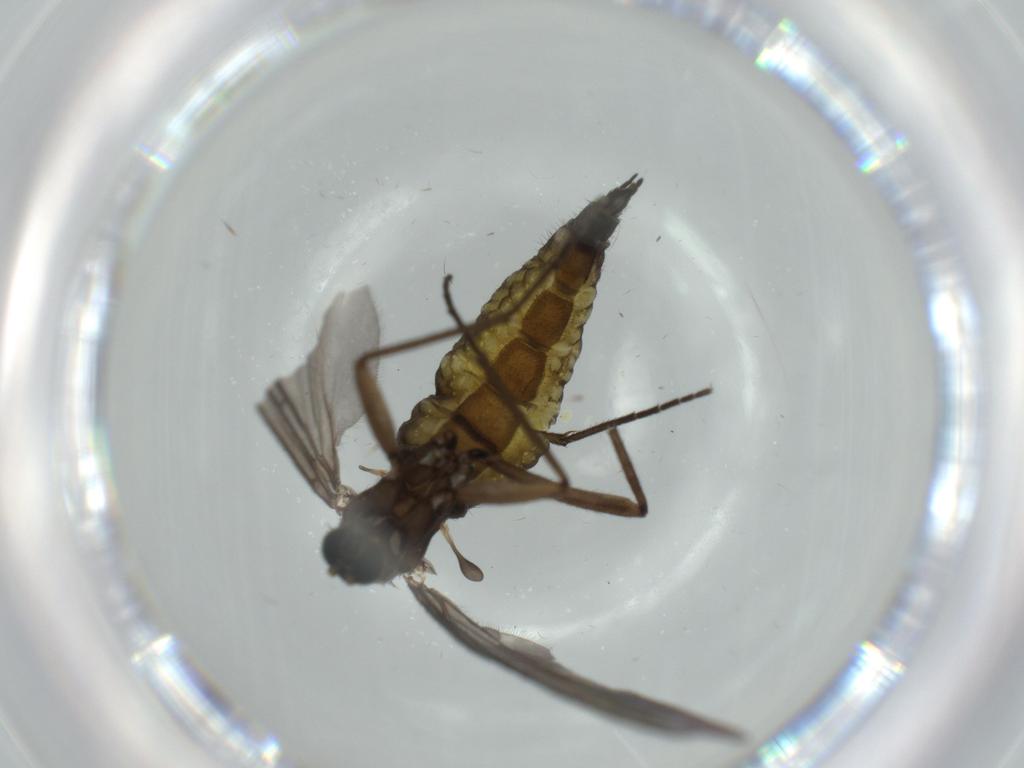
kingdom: Animalia
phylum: Arthropoda
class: Insecta
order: Diptera
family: Sciaridae
